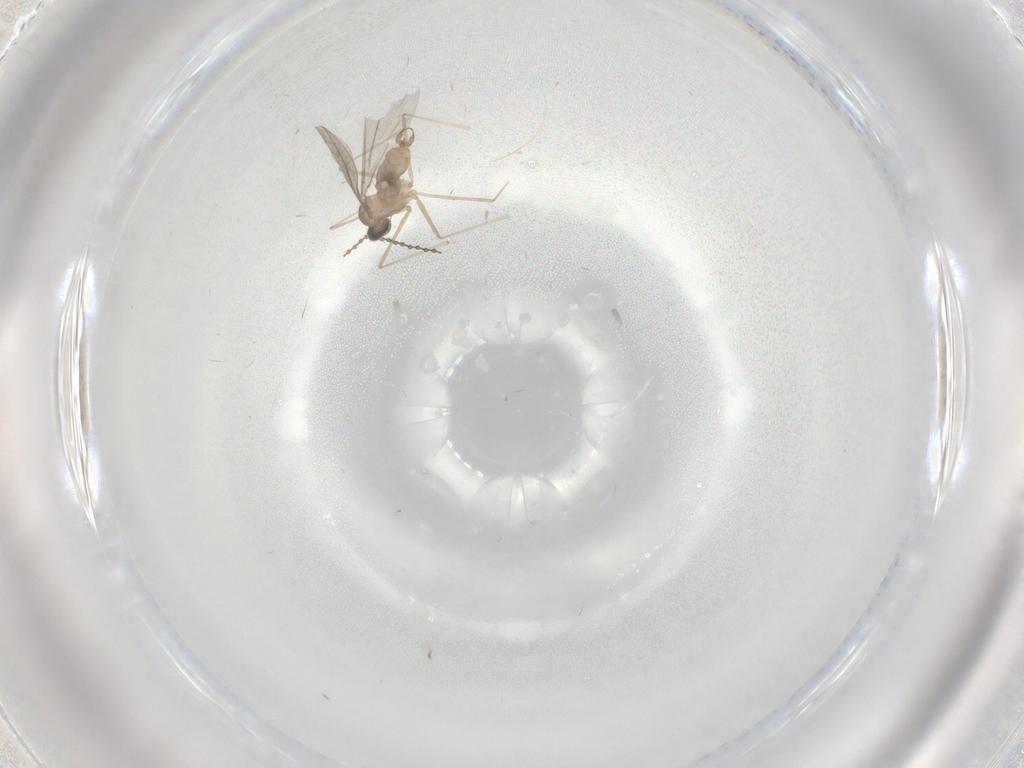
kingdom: Animalia
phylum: Arthropoda
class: Insecta
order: Diptera
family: Cecidomyiidae
